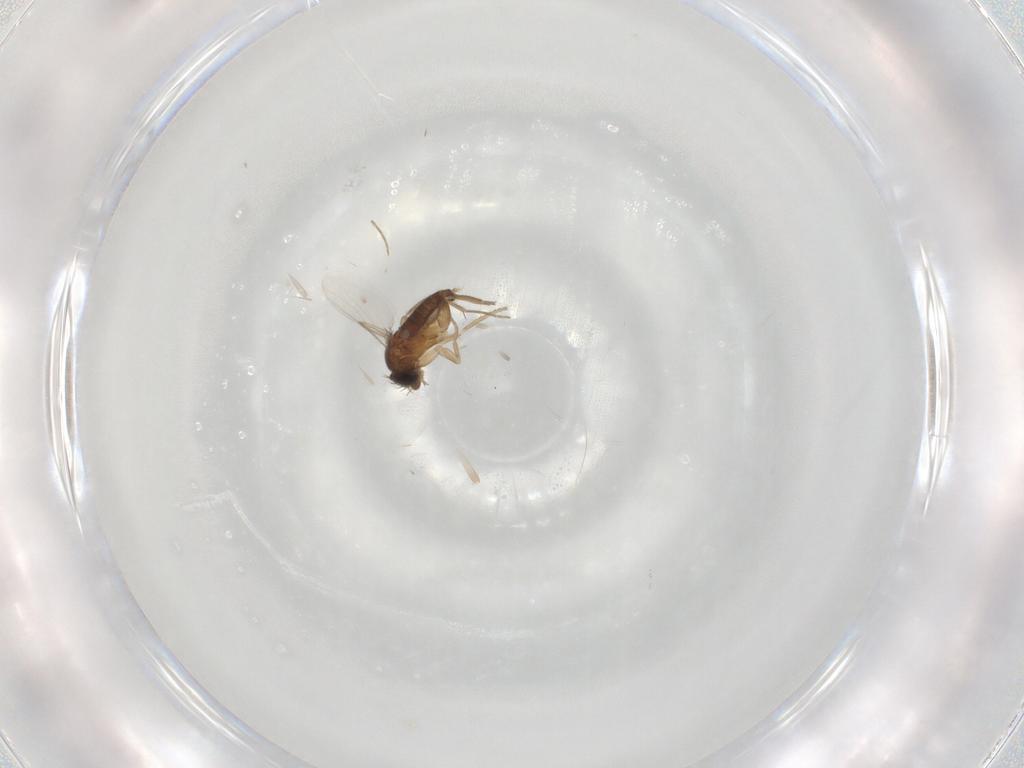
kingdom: Animalia
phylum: Arthropoda
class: Insecta
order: Diptera
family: Phoridae
